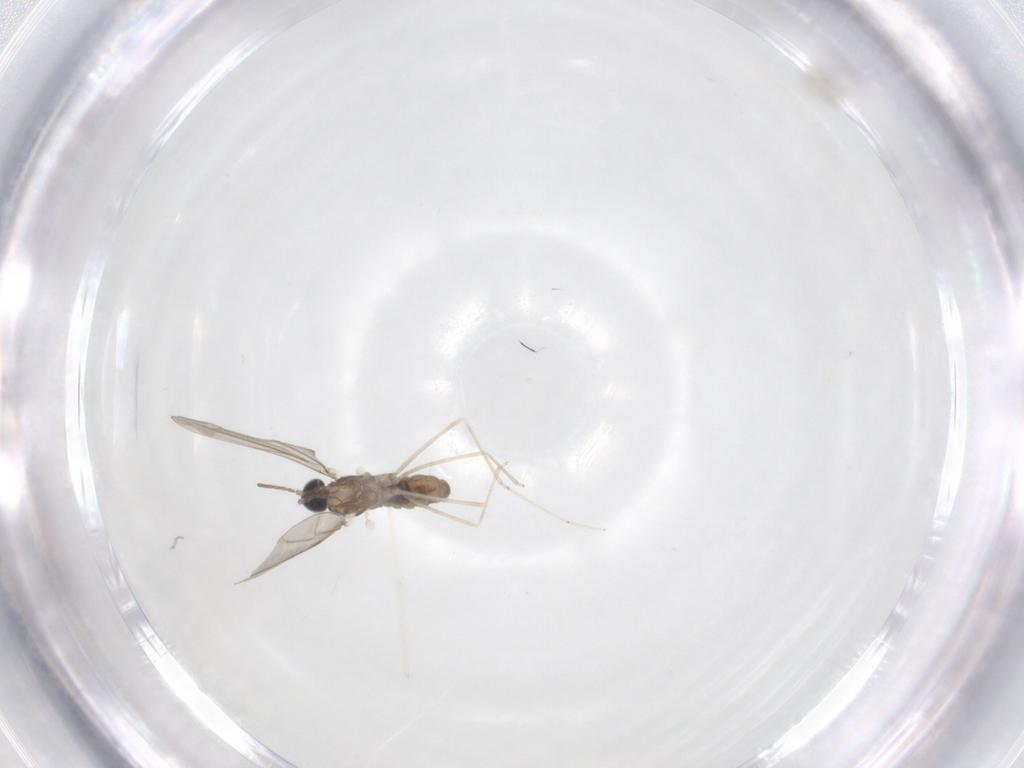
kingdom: Animalia
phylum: Arthropoda
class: Insecta
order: Diptera
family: Cecidomyiidae
